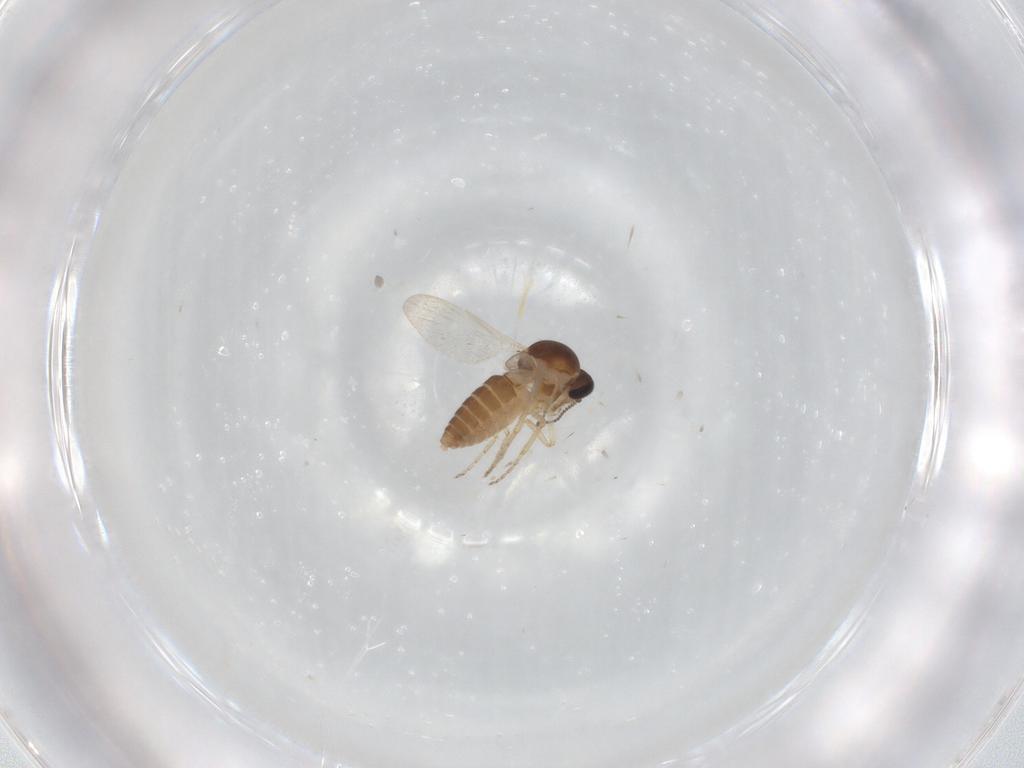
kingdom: Animalia
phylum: Arthropoda
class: Insecta
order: Diptera
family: Ceratopogonidae
